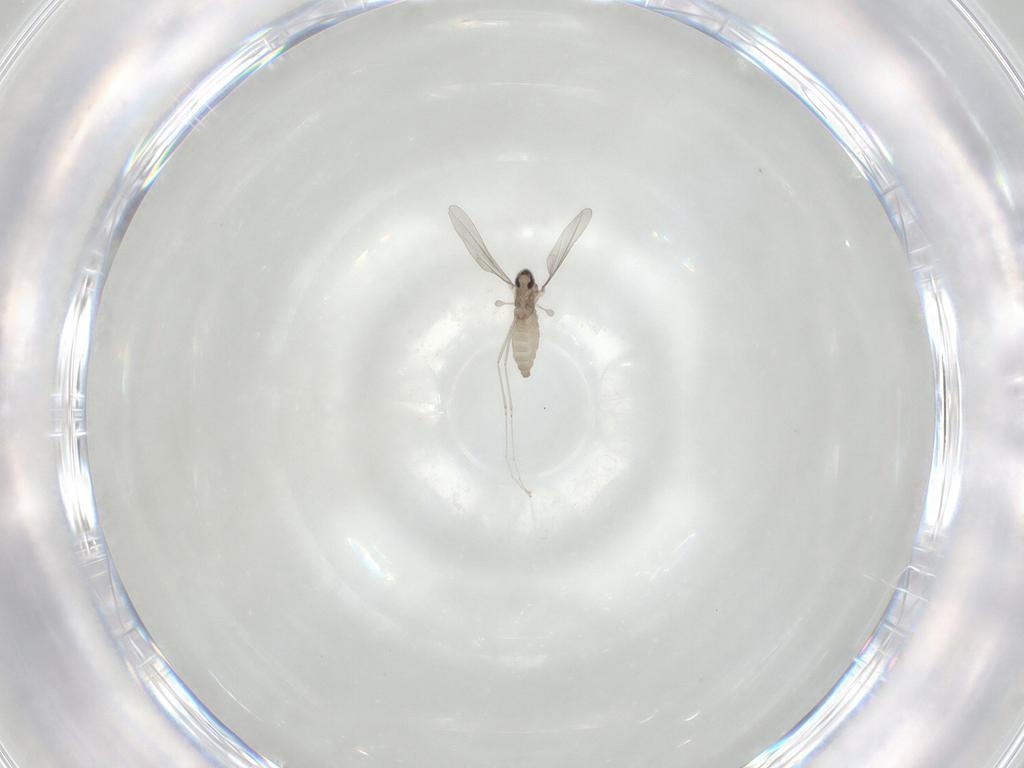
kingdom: Animalia
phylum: Arthropoda
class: Insecta
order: Diptera
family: Cecidomyiidae
